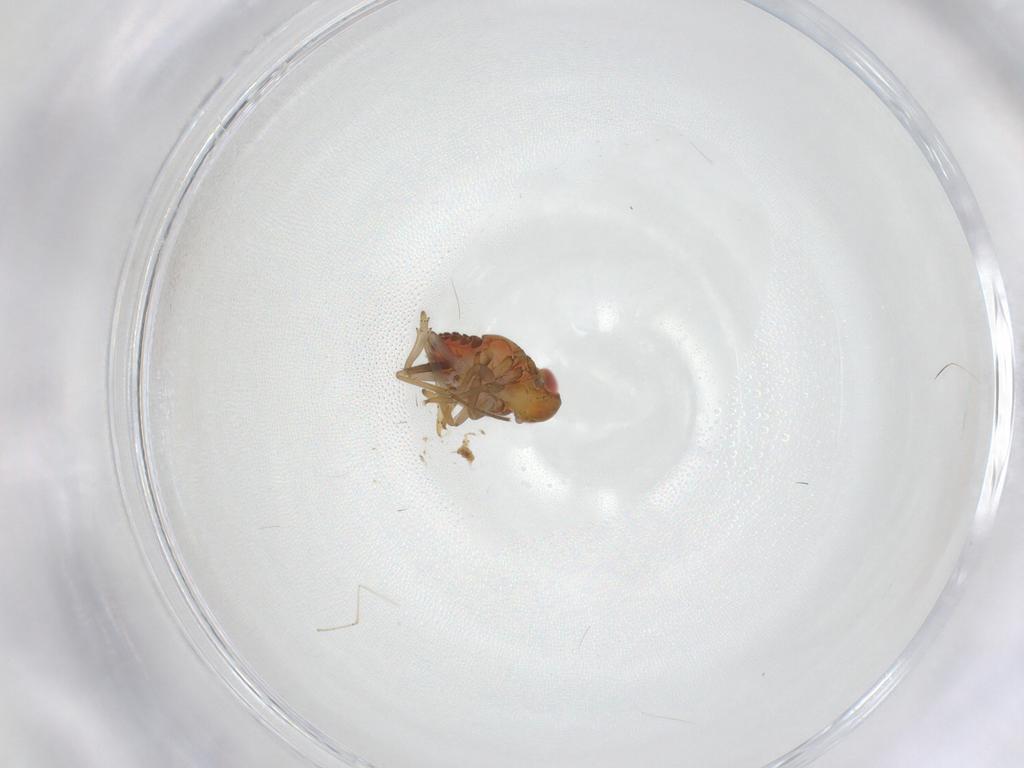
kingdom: Animalia
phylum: Arthropoda
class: Insecta
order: Hemiptera
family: Issidae
